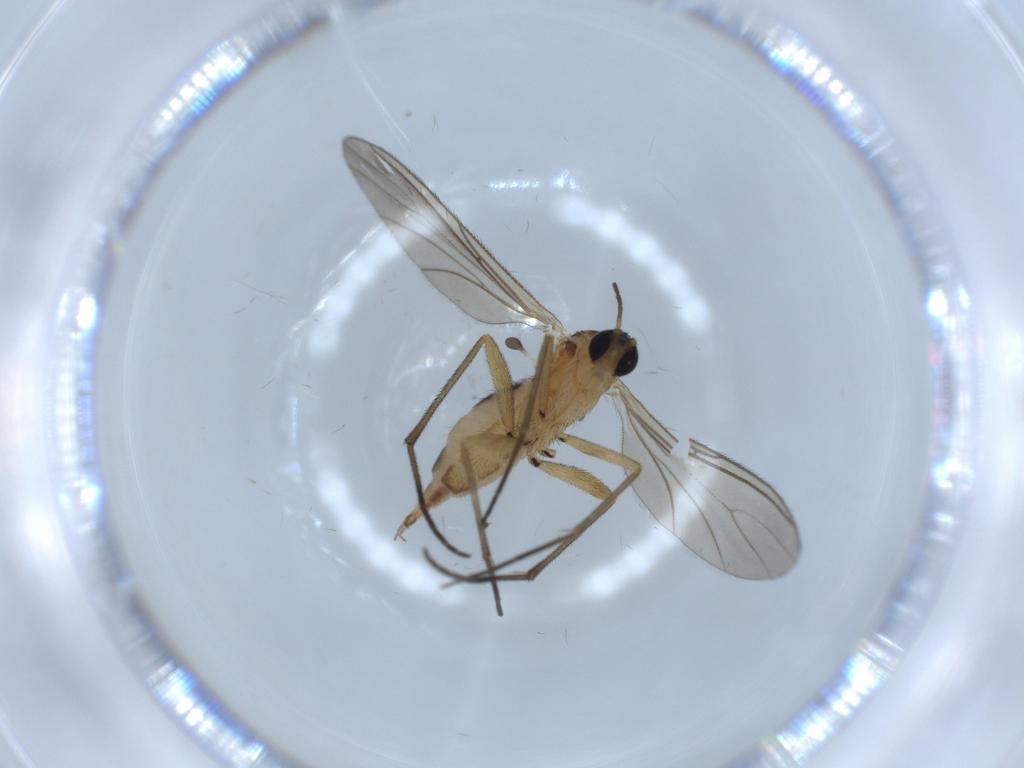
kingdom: Animalia
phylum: Arthropoda
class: Insecta
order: Diptera
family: Sciaridae
